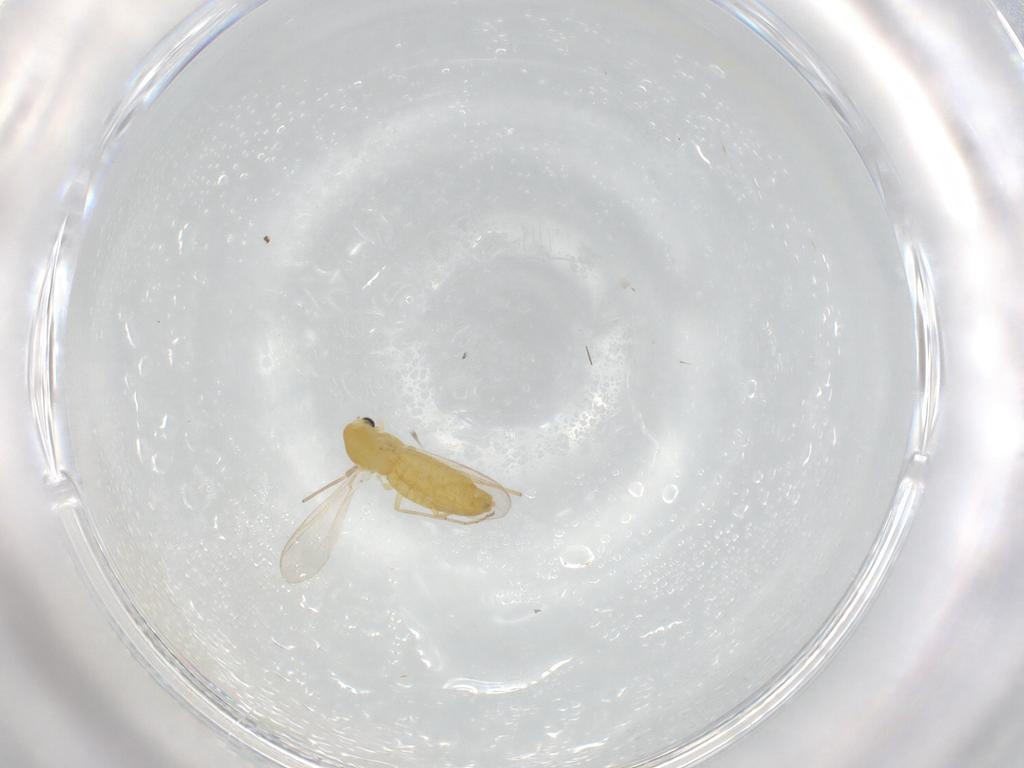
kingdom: Animalia
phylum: Arthropoda
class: Insecta
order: Diptera
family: Chironomidae
